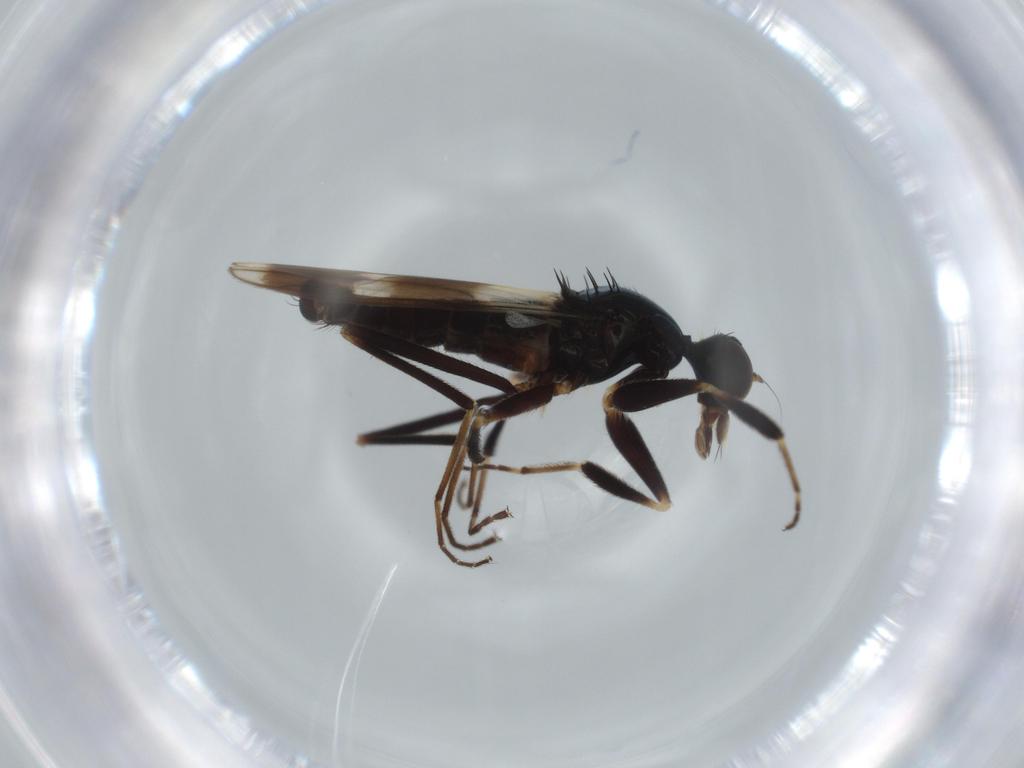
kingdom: Animalia
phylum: Arthropoda
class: Insecta
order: Diptera
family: Hybotidae
